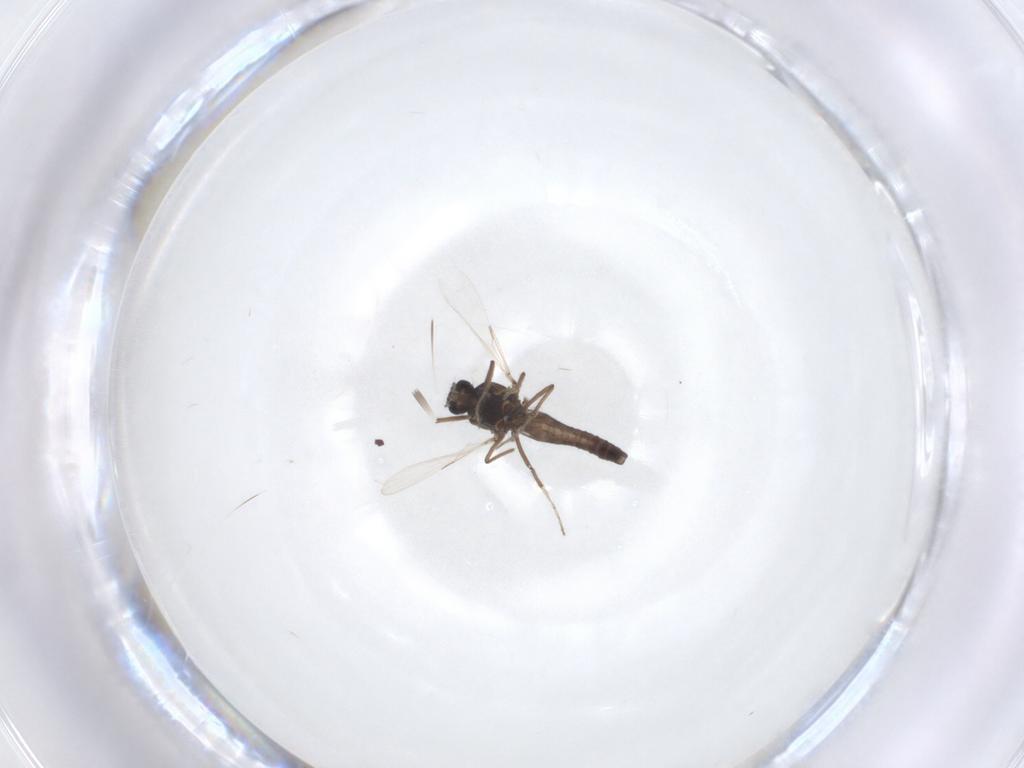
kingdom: Animalia
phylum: Arthropoda
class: Insecta
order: Diptera
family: Ceratopogonidae
